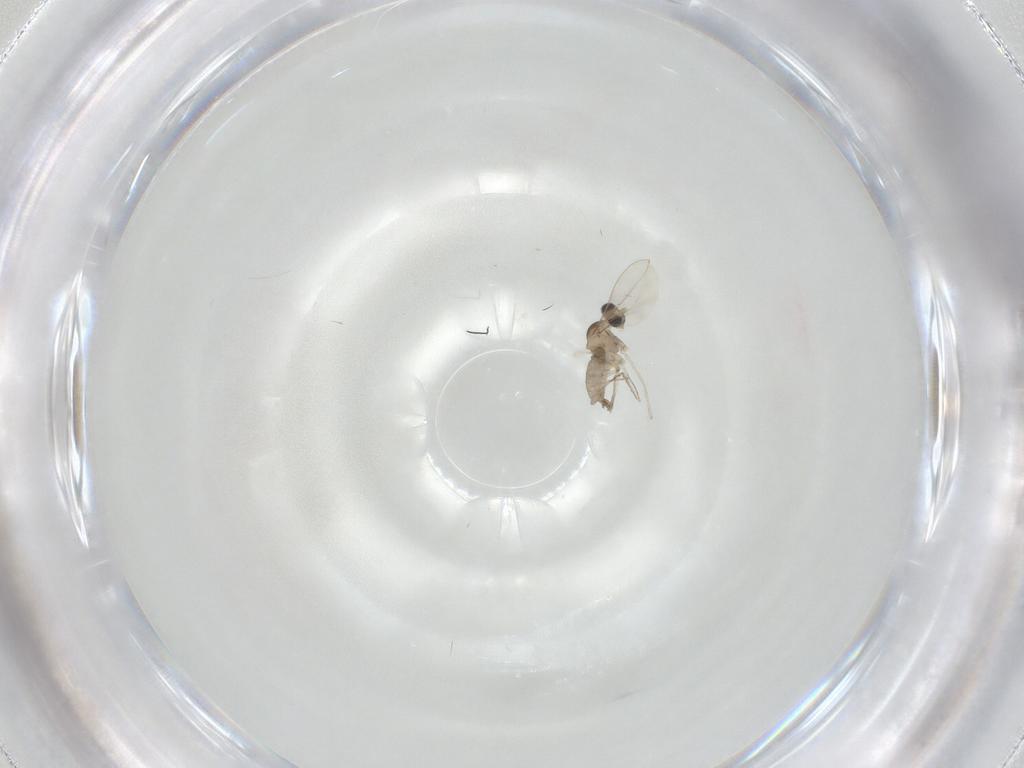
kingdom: Animalia
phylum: Arthropoda
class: Insecta
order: Diptera
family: Cecidomyiidae
